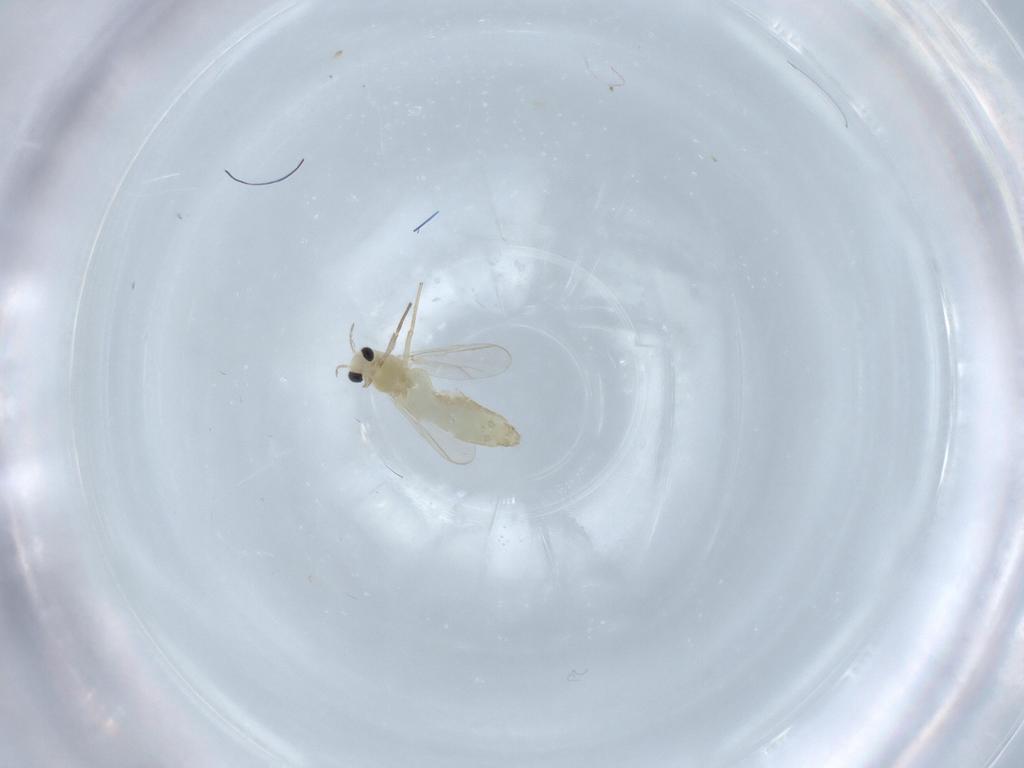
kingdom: Animalia
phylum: Arthropoda
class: Insecta
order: Diptera
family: Chironomidae
